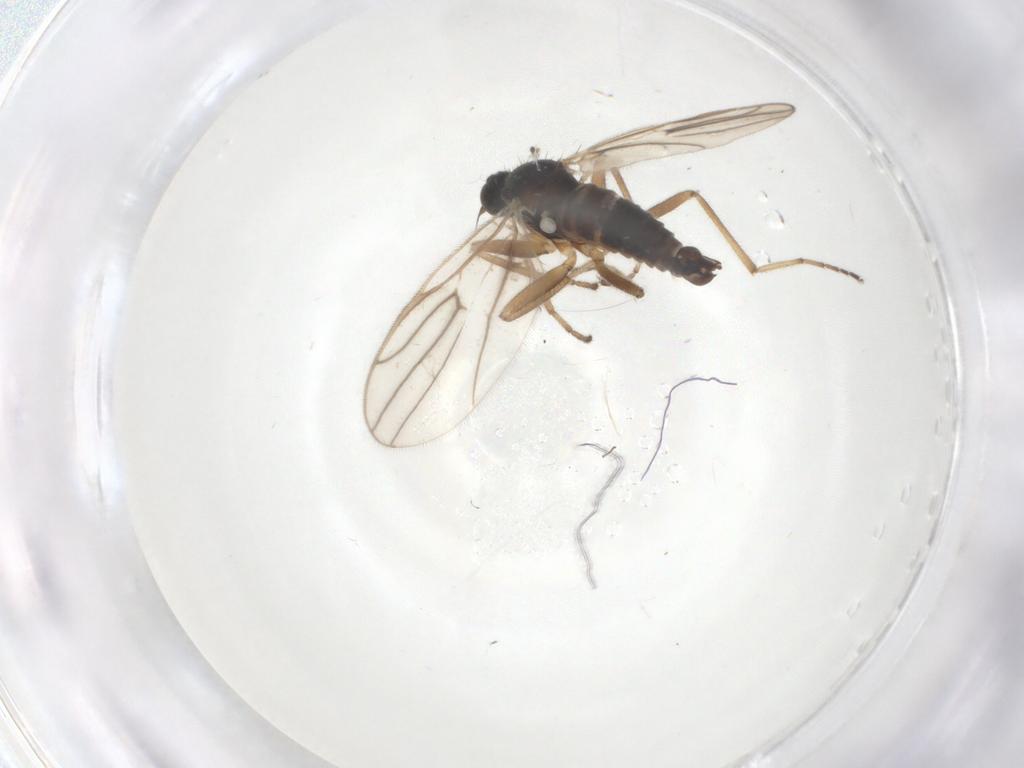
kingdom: Animalia
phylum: Arthropoda
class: Insecta
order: Diptera
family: Hybotidae
